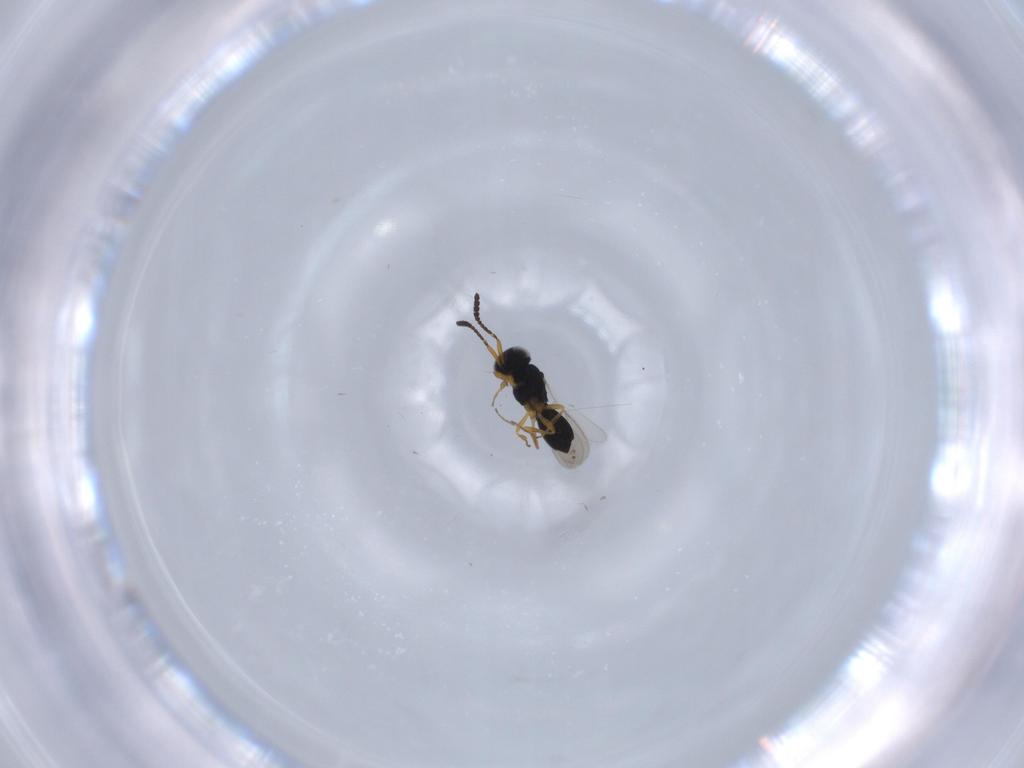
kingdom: Animalia
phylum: Arthropoda
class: Insecta
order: Hymenoptera
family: Scelionidae
